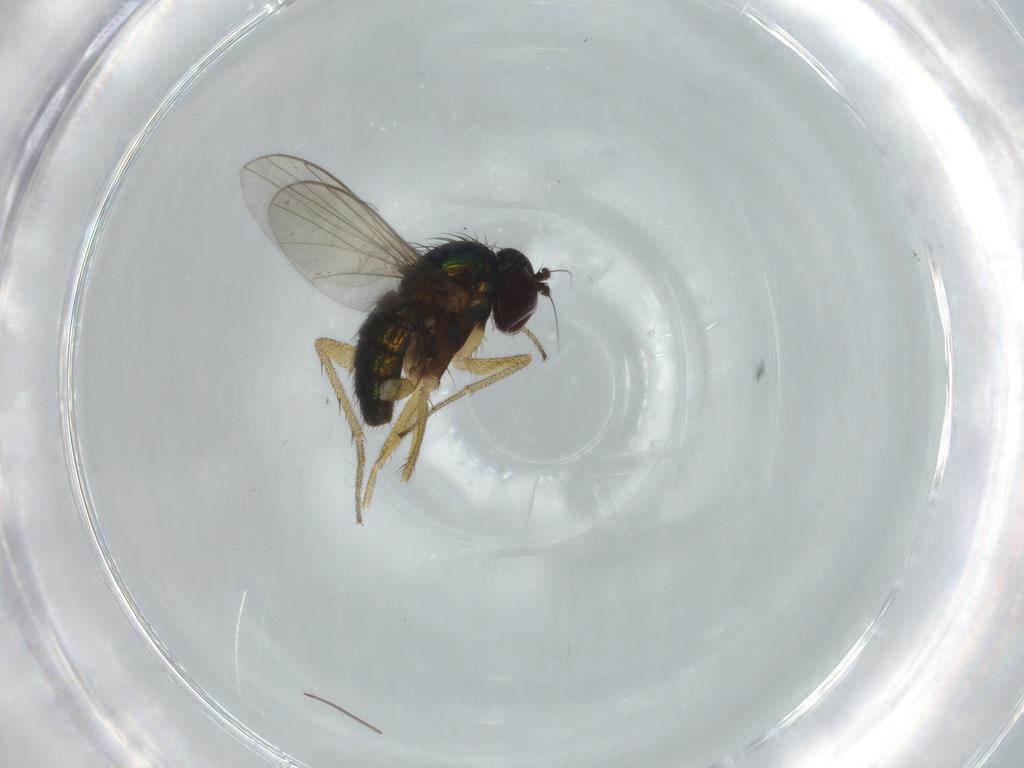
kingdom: Animalia
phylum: Arthropoda
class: Insecta
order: Diptera
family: Dolichopodidae
